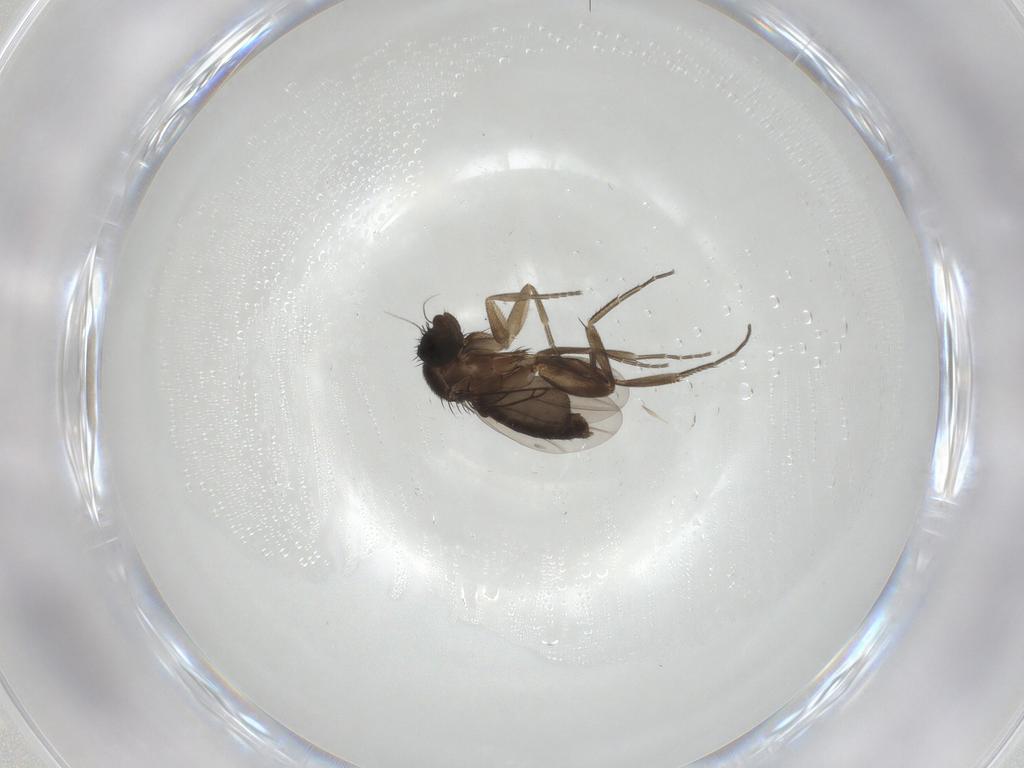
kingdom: Animalia
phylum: Arthropoda
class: Insecta
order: Diptera
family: Phoridae
